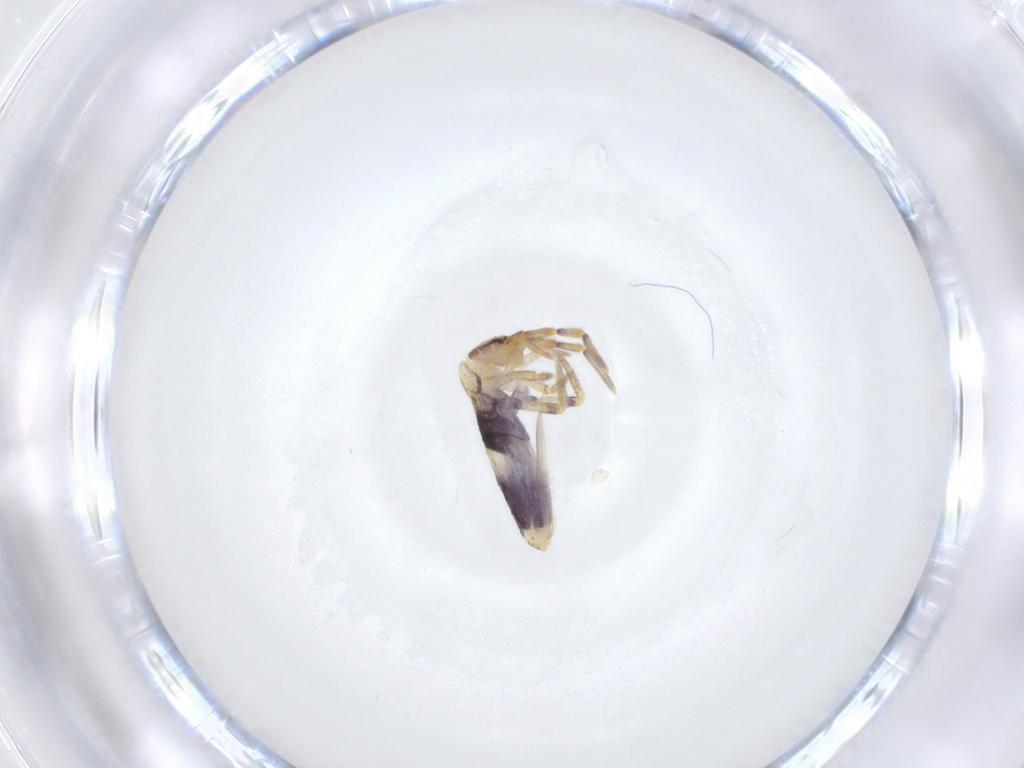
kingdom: Animalia
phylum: Arthropoda
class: Collembola
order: Entomobryomorpha
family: Entomobryidae
